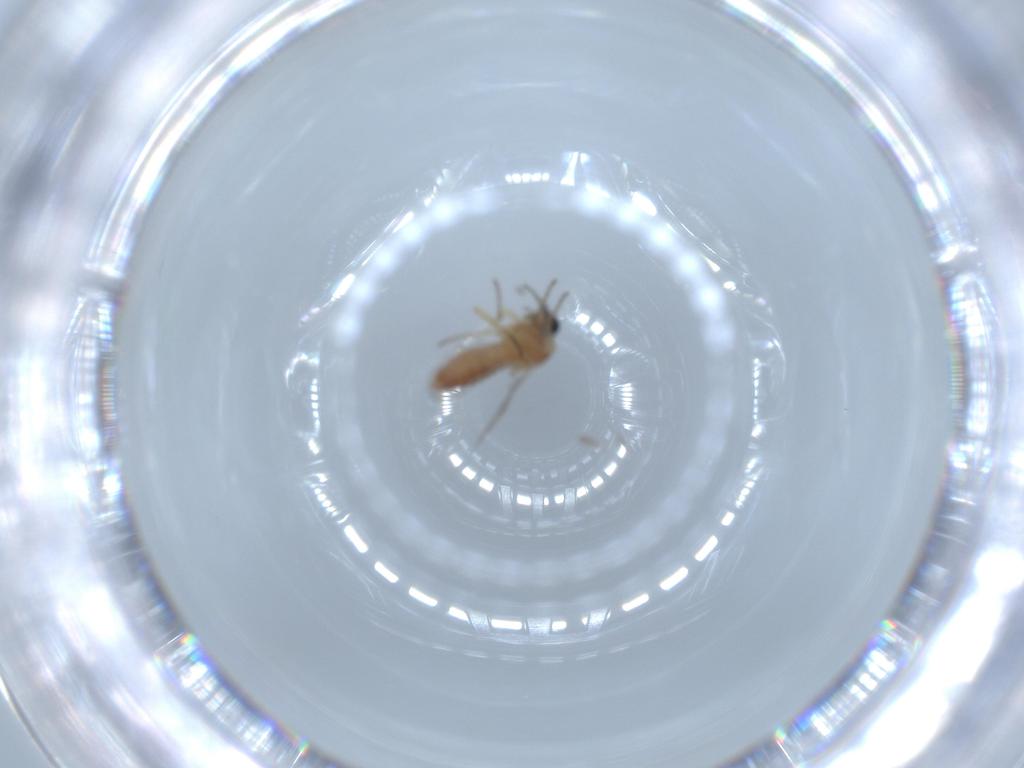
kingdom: Animalia
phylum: Arthropoda
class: Insecta
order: Diptera
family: Ceratopogonidae
